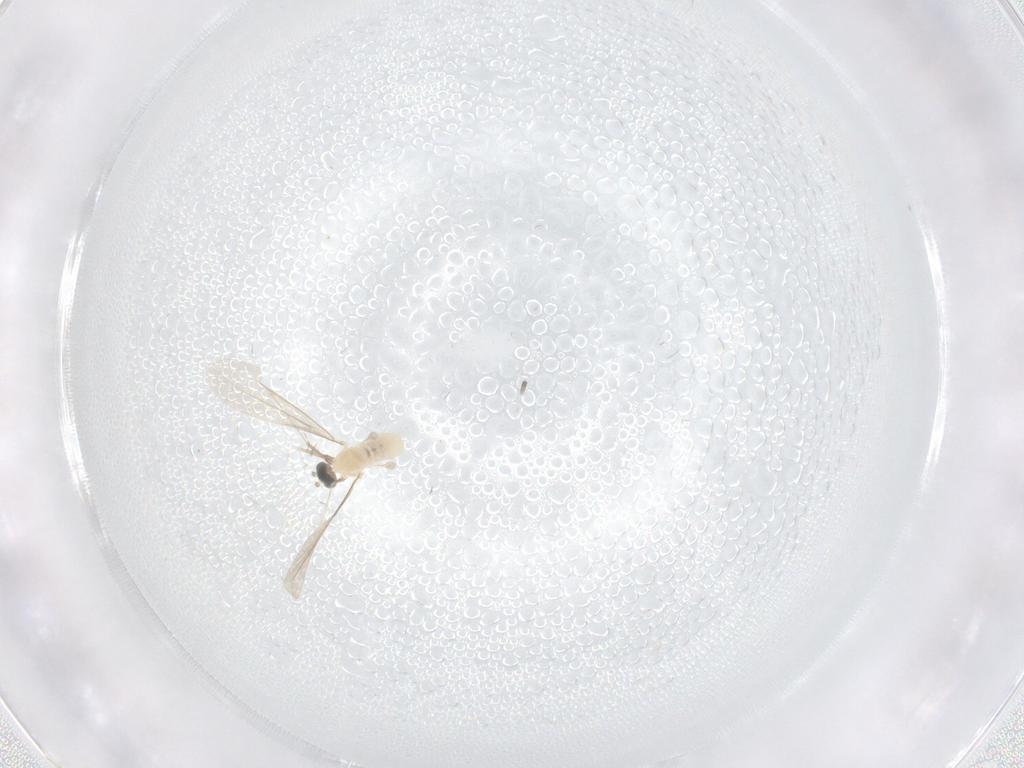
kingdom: Animalia
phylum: Arthropoda
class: Insecta
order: Diptera
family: Cecidomyiidae
